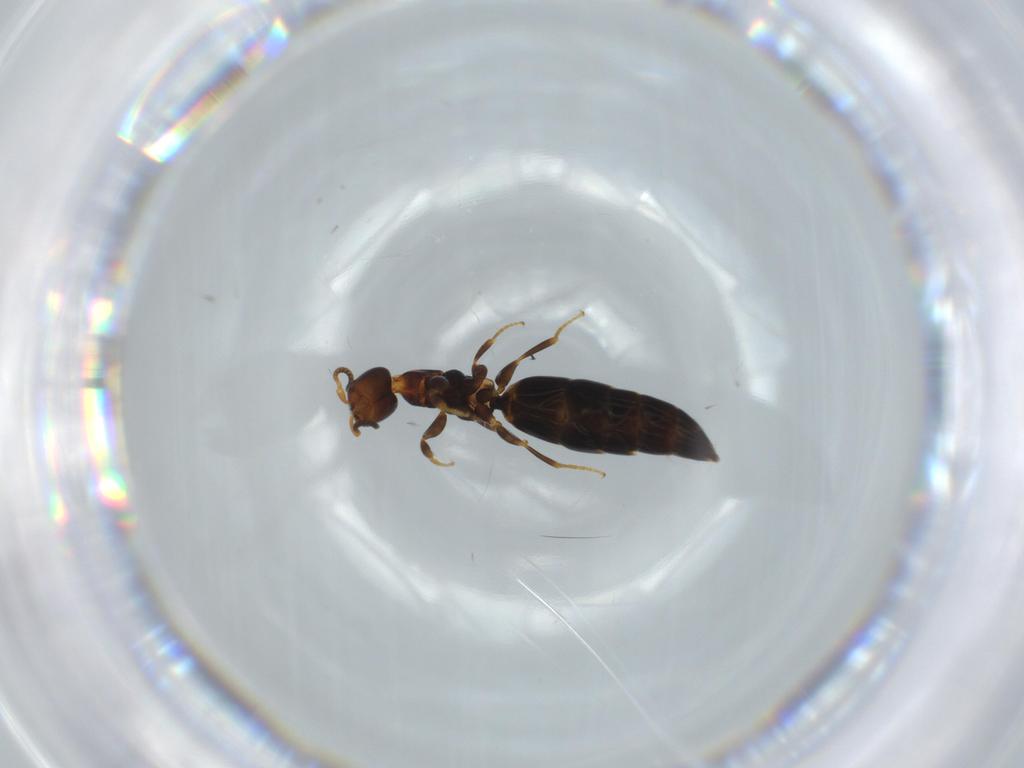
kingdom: Animalia
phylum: Arthropoda
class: Insecta
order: Hymenoptera
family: Bethylidae
